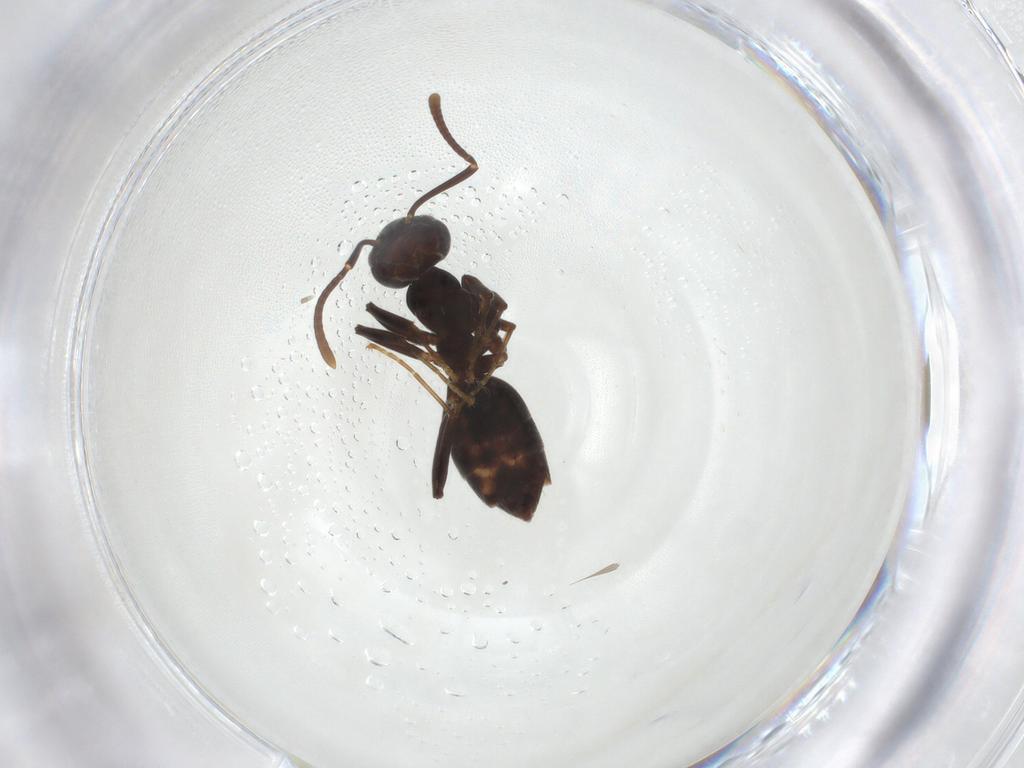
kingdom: Animalia
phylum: Arthropoda
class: Insecta
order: Hymenoptera
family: Formicidae
